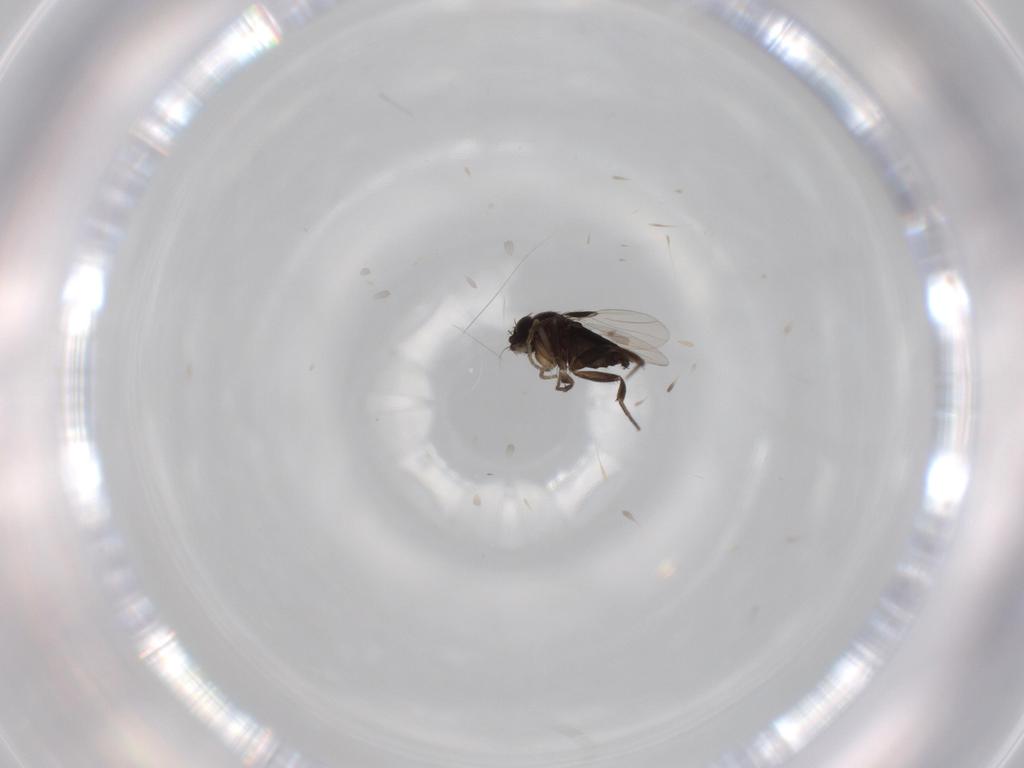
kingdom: Animalia
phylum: Arthropoda
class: Insecta
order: Diptera
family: Phoridae
